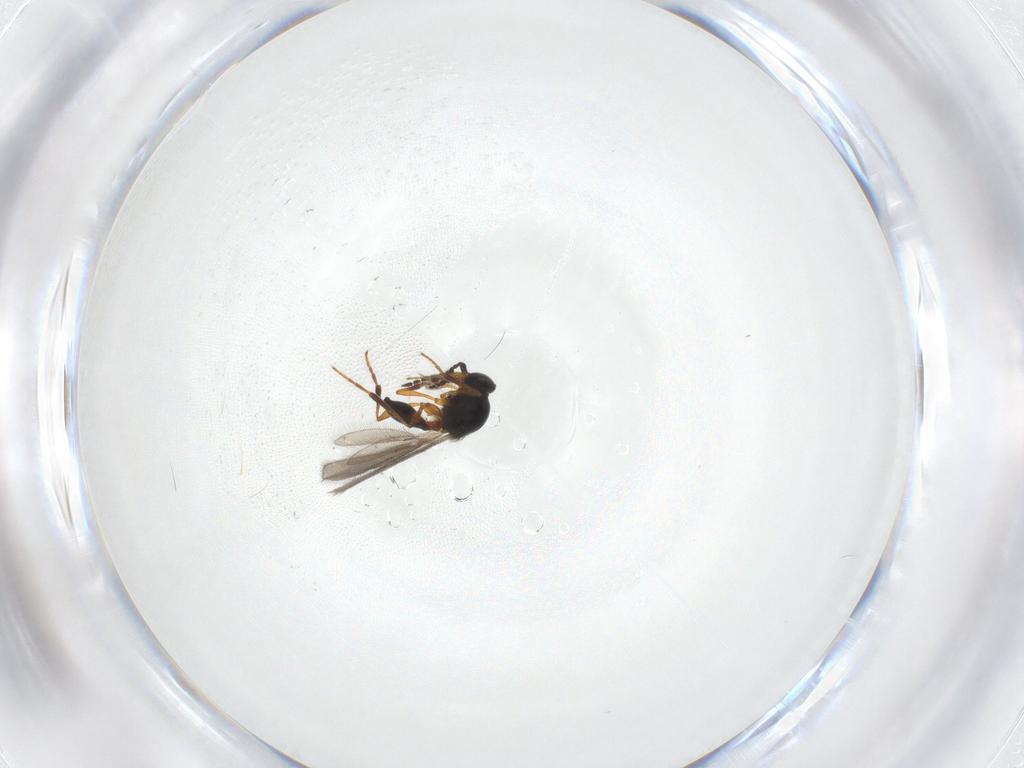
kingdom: Animalia
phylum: Arthropoda
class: Insecta
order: Hymenoptera
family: Platygastridae
